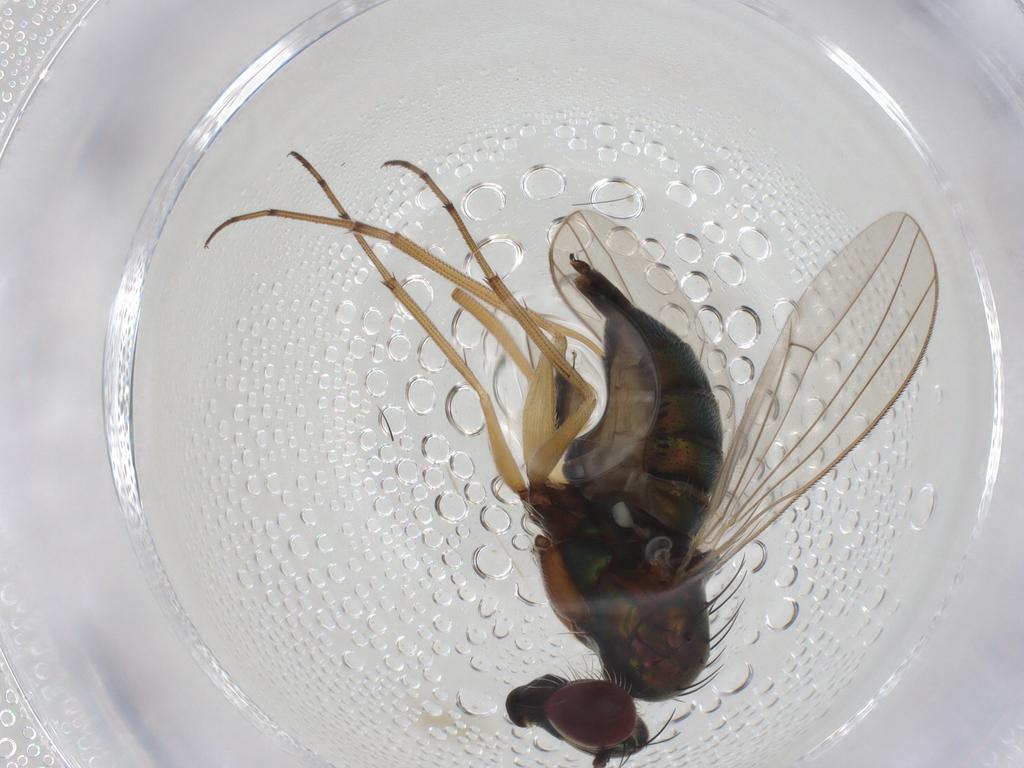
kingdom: Animalia
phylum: Arthropoda
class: Insecta
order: Diptera
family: Dolichopodidae
